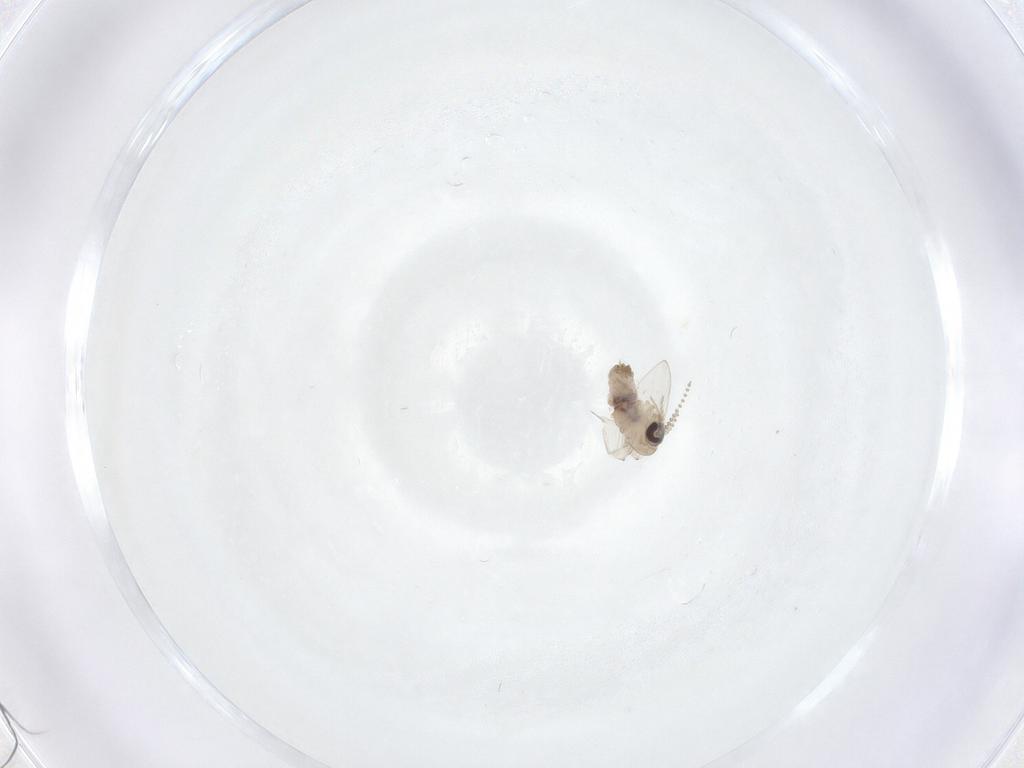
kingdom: Animalia
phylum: Arthropoda
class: Insecta
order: Diptera
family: Psychodidae
